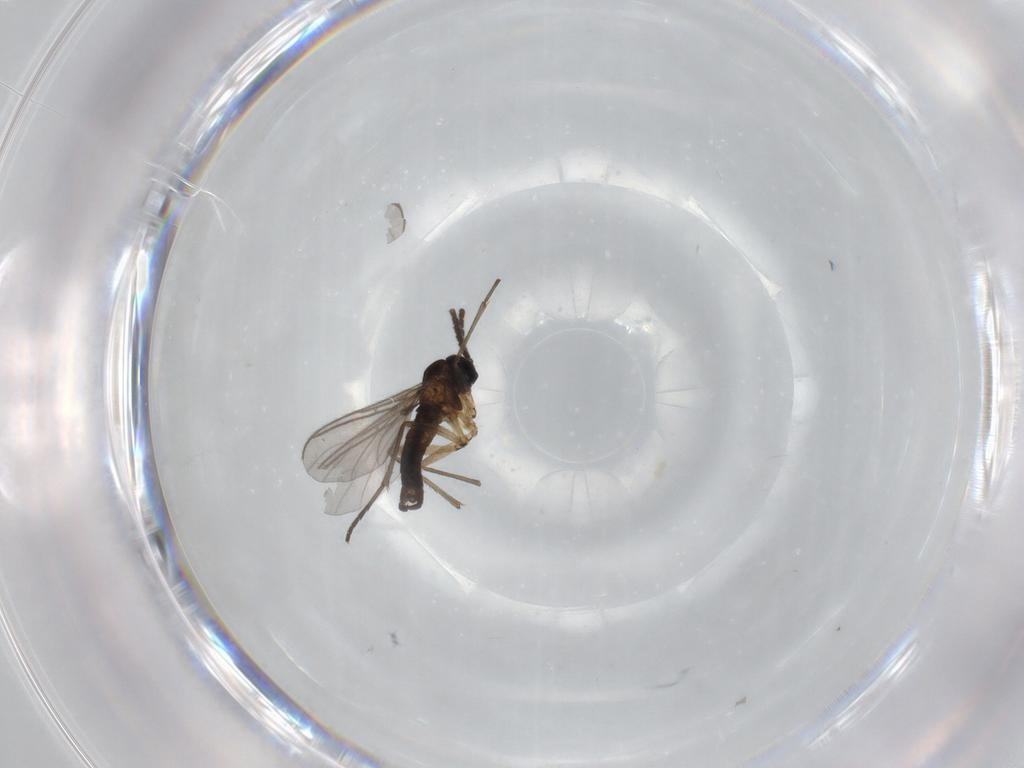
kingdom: Animalia
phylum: Arthropoda
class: Insecta
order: Diptera
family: Sciaridae
